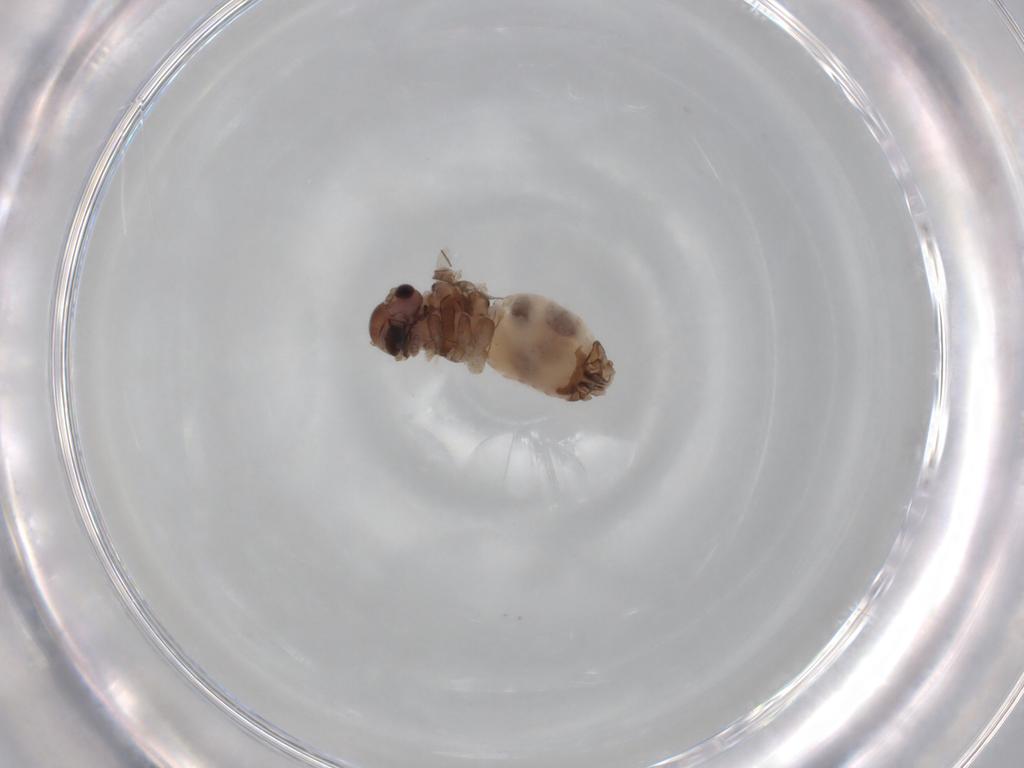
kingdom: Animalia
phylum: Arthropoda
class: Insecta
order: Psocodea
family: Peripsocidae
